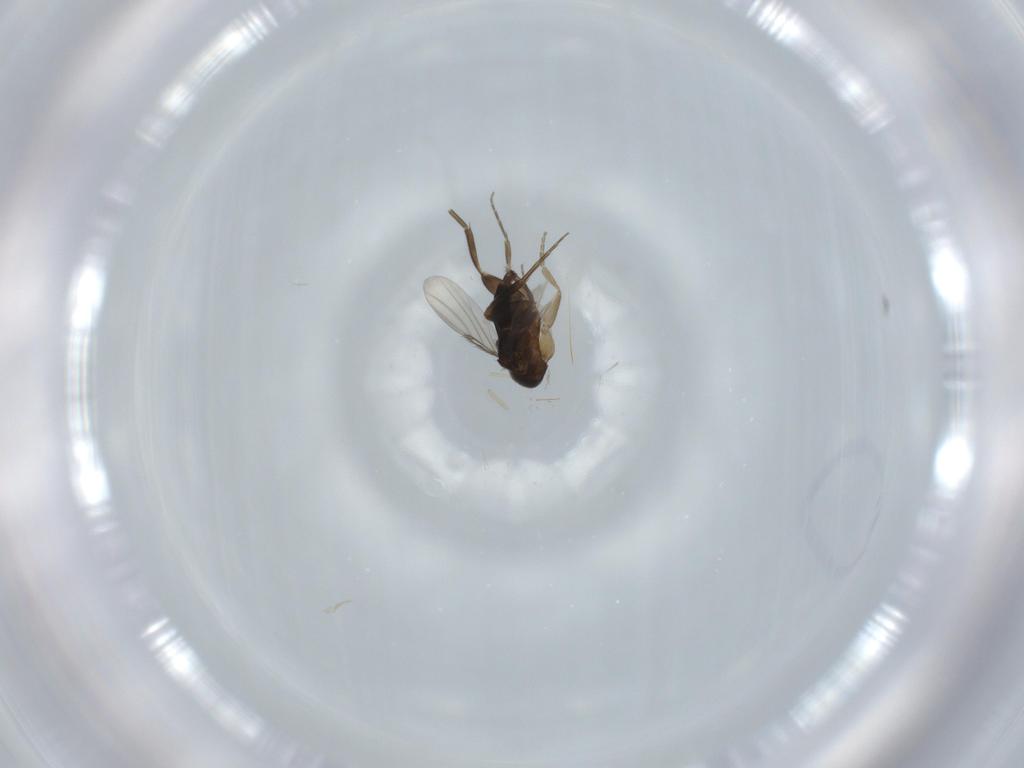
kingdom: Animalia
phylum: Arthropoda
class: Insecta
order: Diptera
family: Phoridae
